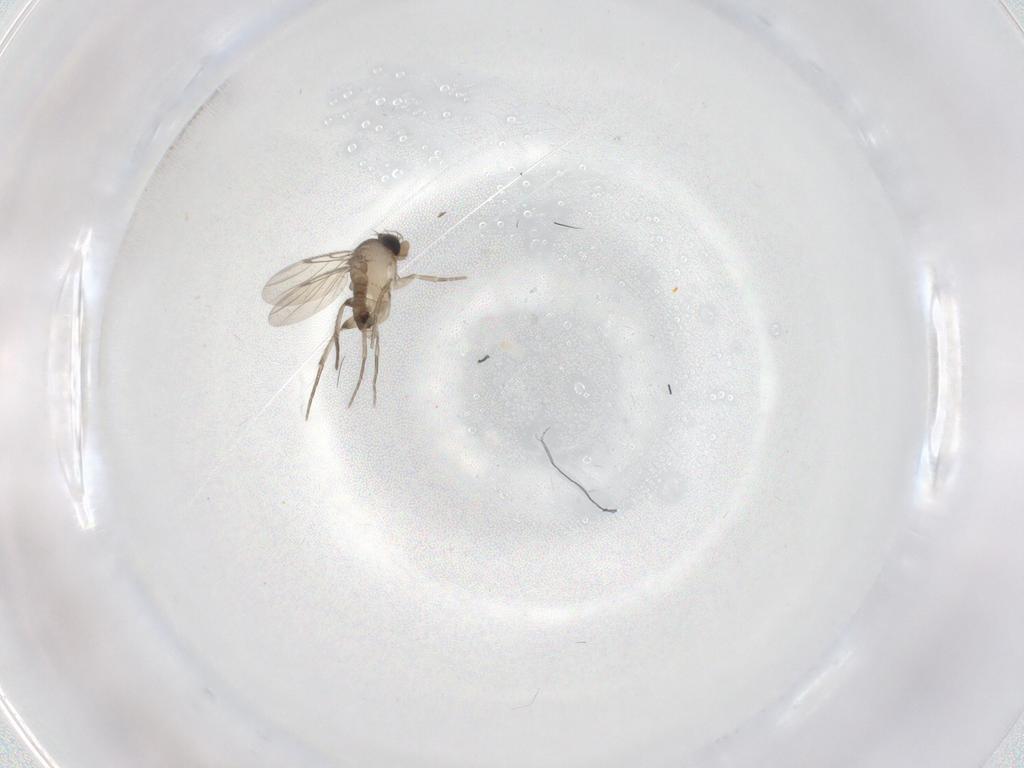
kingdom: Animalia
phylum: Arthropoda
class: Insecta
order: Diptera
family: Phoridae
